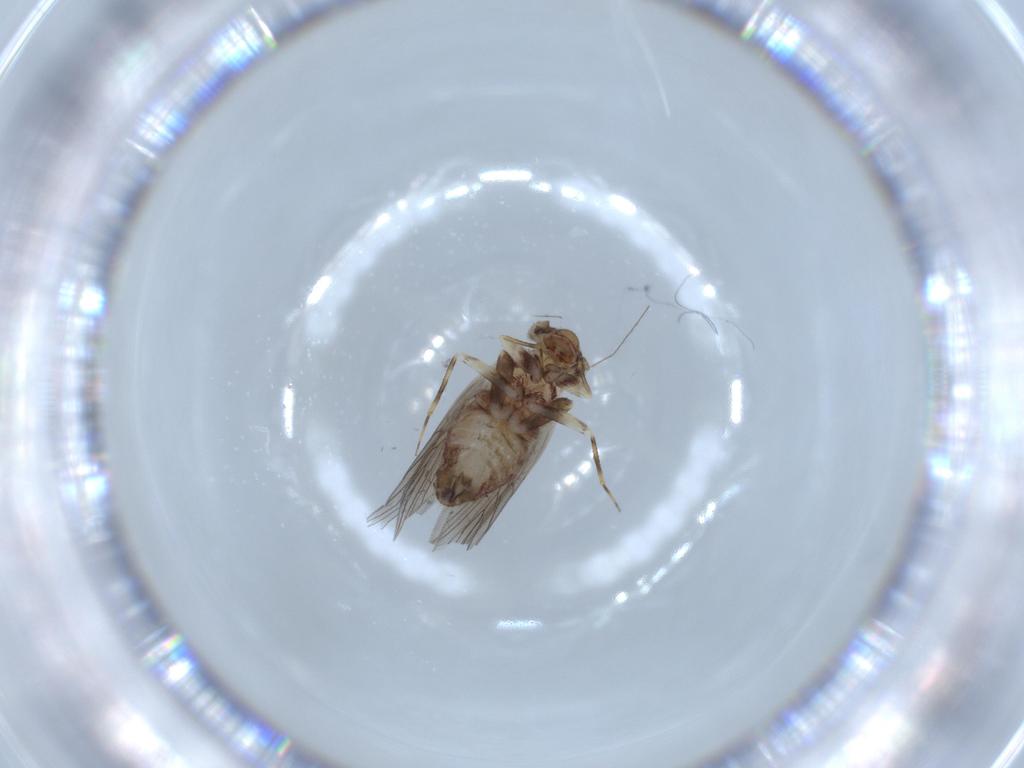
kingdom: Animalia
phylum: Arthropoda
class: Insecta
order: Psocodea
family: Lepidopsocidae
